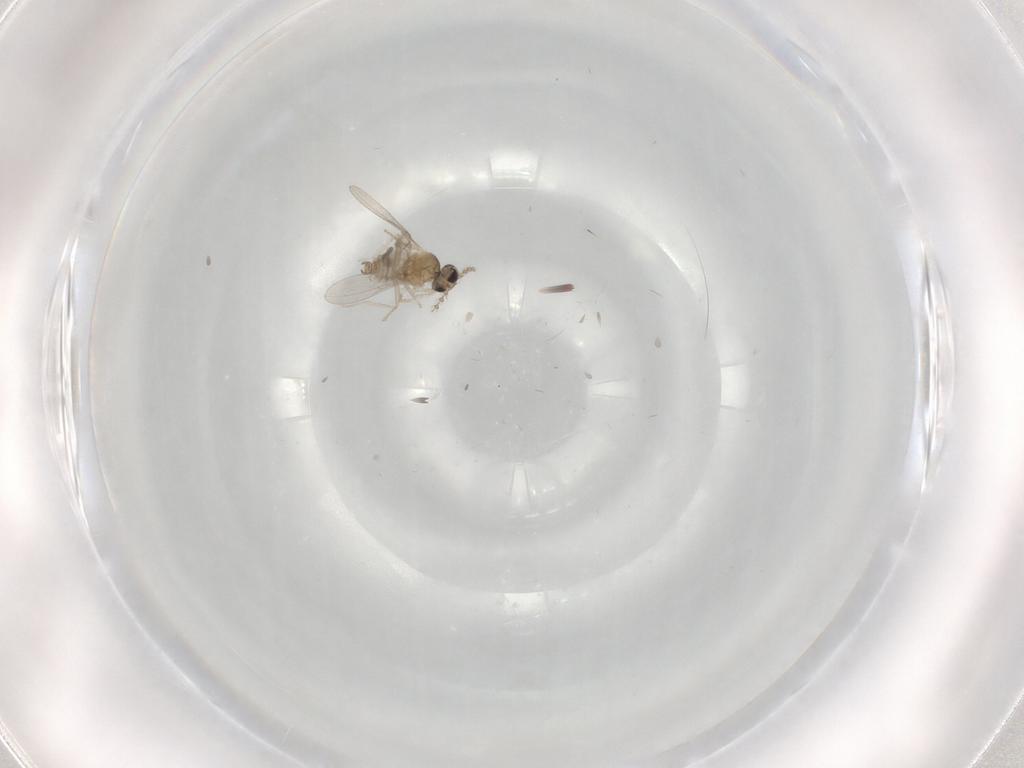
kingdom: Animalia
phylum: Arthropoda
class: Insecta
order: Diptera
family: Cecidomyiidae
